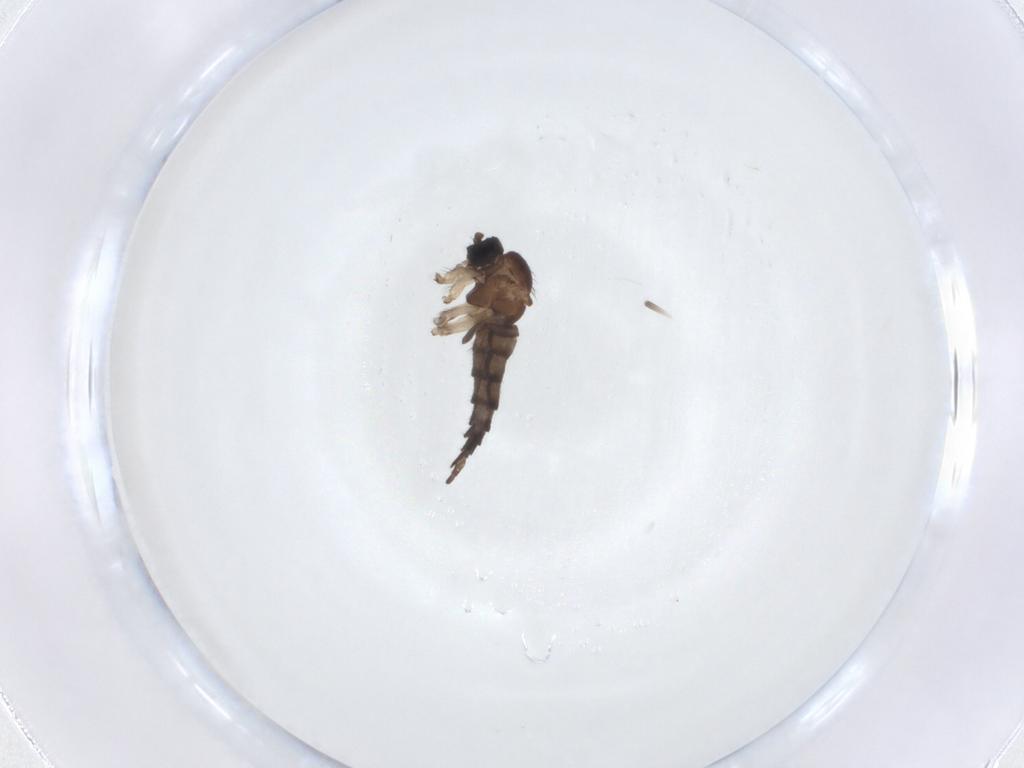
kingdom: Animalia
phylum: Arthropoda
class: Insecta
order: Diptera
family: Sciaridae
